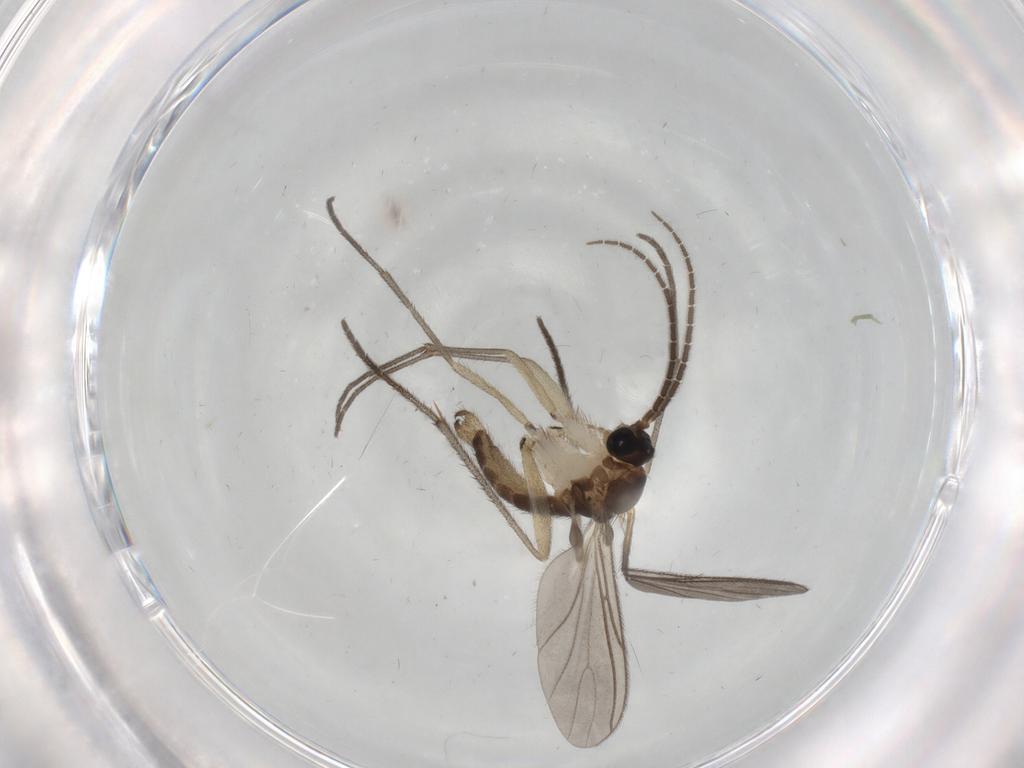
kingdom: Animalia
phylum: Arthropoda
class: Insecta
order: Diptera
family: Sciaridae
